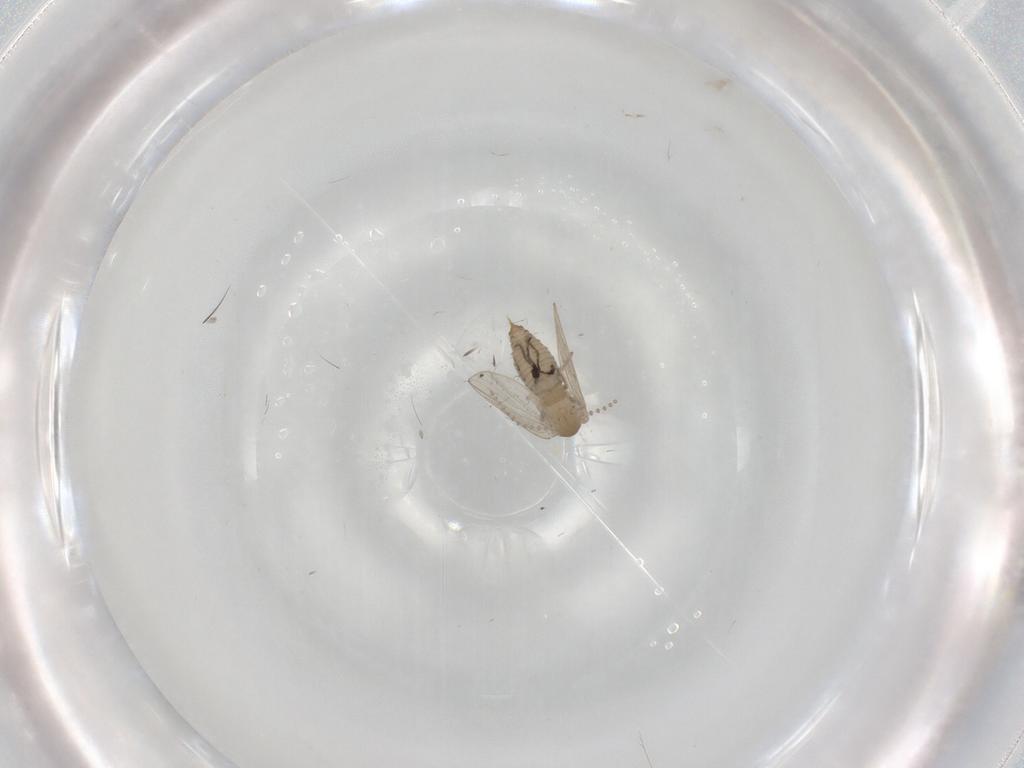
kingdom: Animalia
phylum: Arthropoda
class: Insecta
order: Diptera
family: Psychodidae
